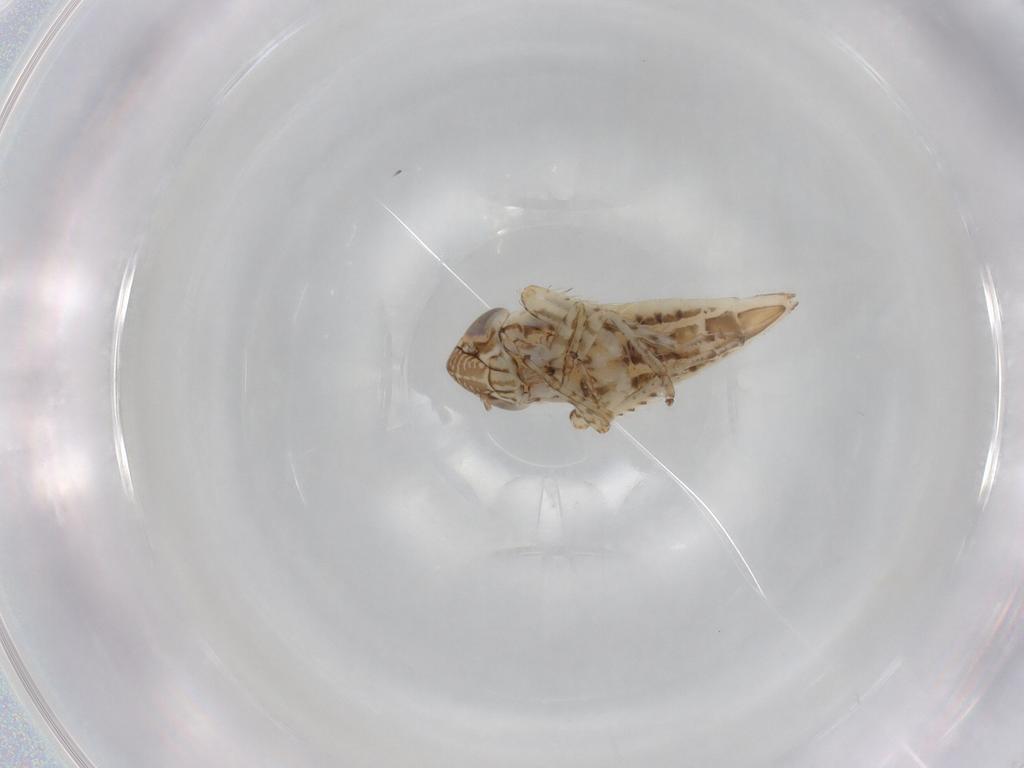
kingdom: Animalia
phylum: Arthropoda
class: Insecta
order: Hemiptera
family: Cicadellidae
